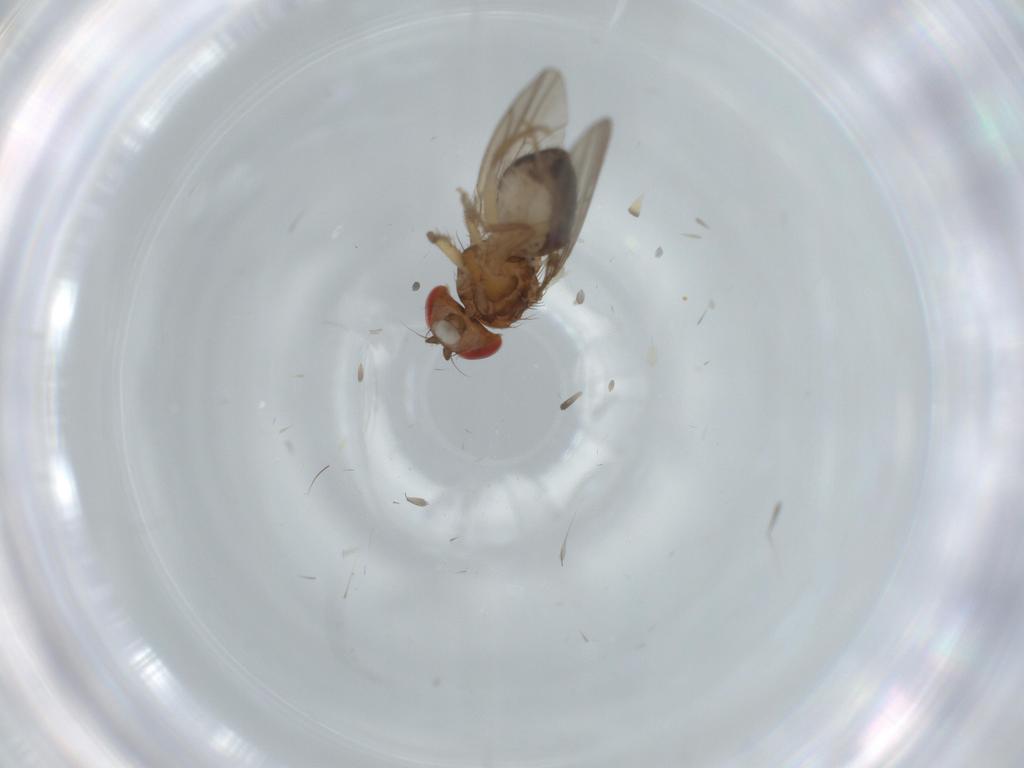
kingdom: Animalia
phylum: Arthropoda
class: Insecta
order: Diptera
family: Drosophilidae
